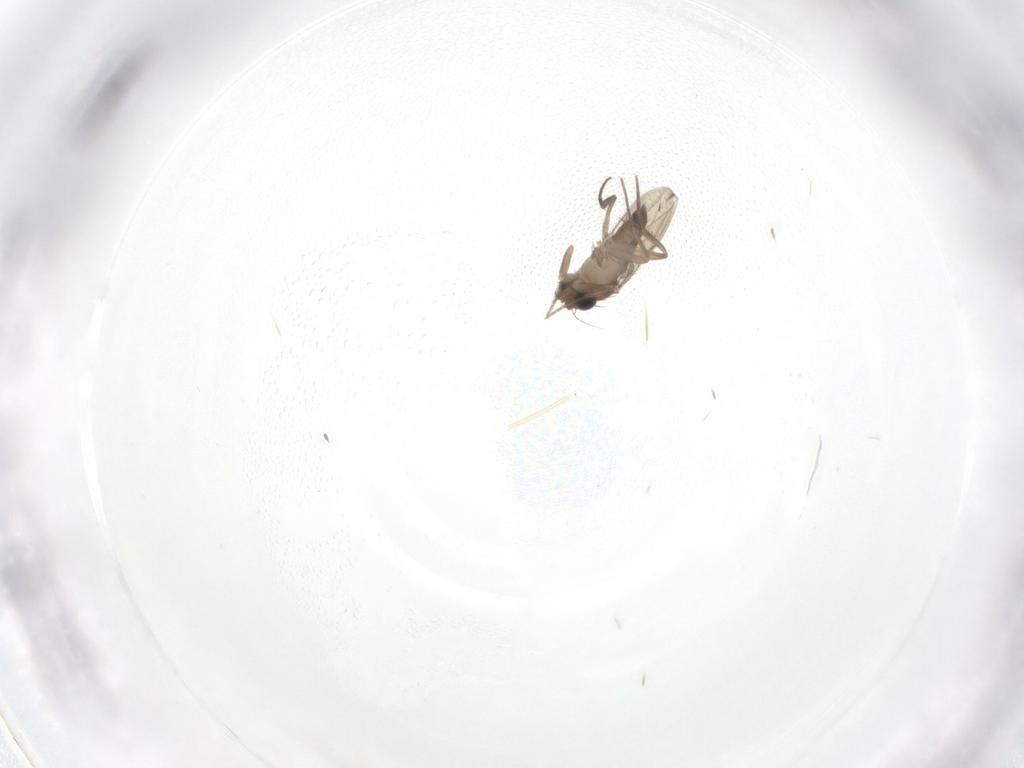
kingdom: Animalia
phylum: Arthropoda
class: Insecta
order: Diptera
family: Phoridae
